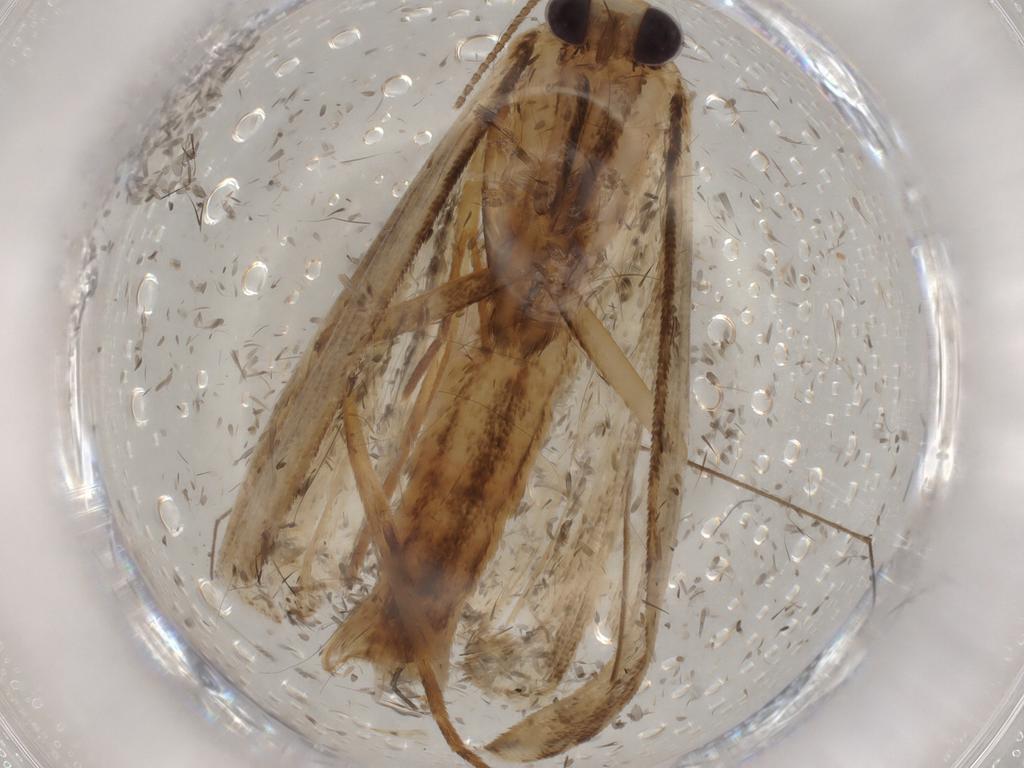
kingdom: Animalia
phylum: Arthropoda
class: Insecta
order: Lepidoptera
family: Noctuidae
